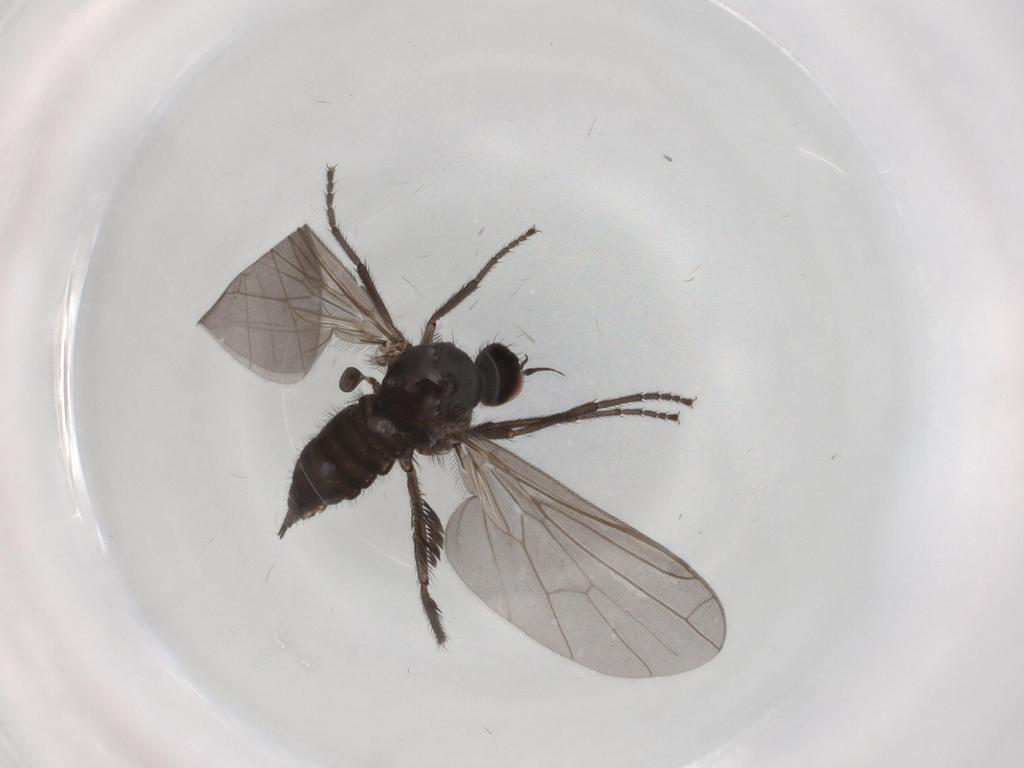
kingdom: Animalia
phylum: Arthropoda
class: Insecta
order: Diptera
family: Empididae
